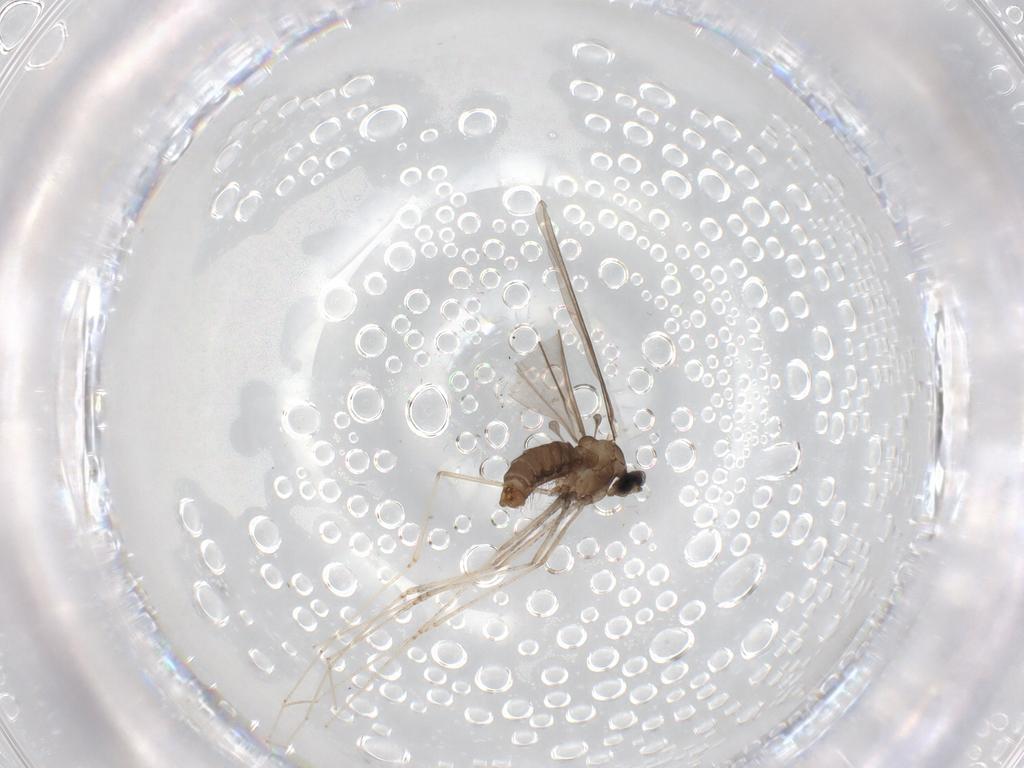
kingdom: Animalia
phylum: Arthropoda
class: Insecta
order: Diptera
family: Cecidomyiidae
